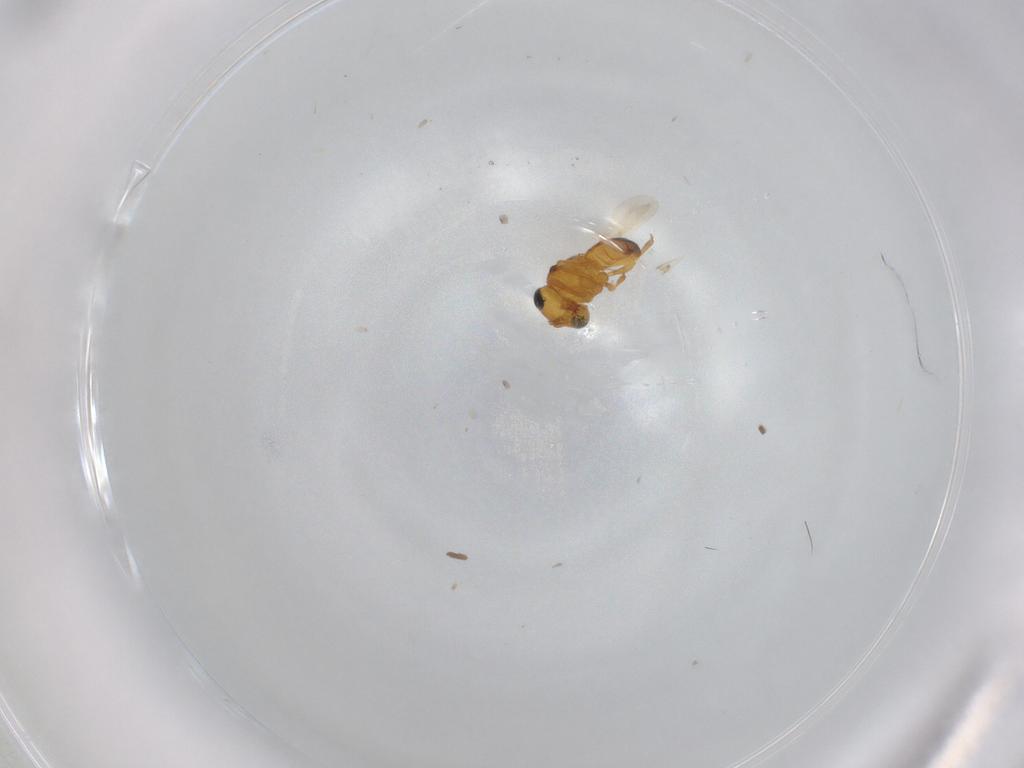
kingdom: Animalia
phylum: Arthropoda
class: Insecta
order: Hymenoptera
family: Scelionidae
